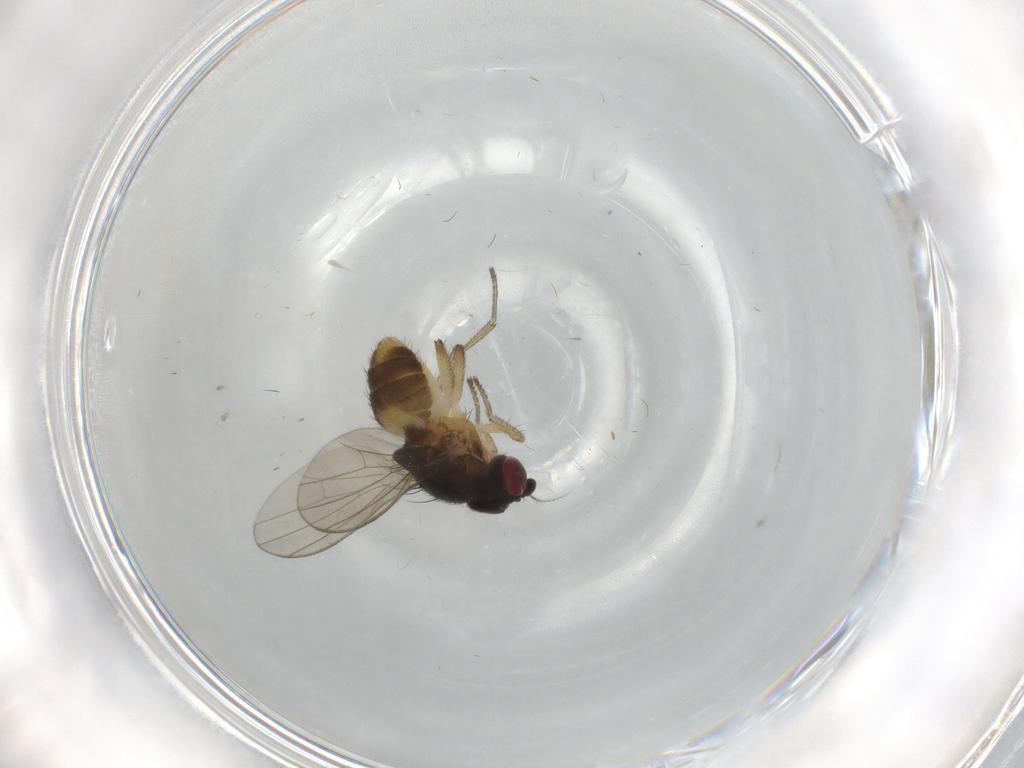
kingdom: Animalia
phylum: Arthropoda
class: Insecta
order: Diptera
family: Lauxaniidae
